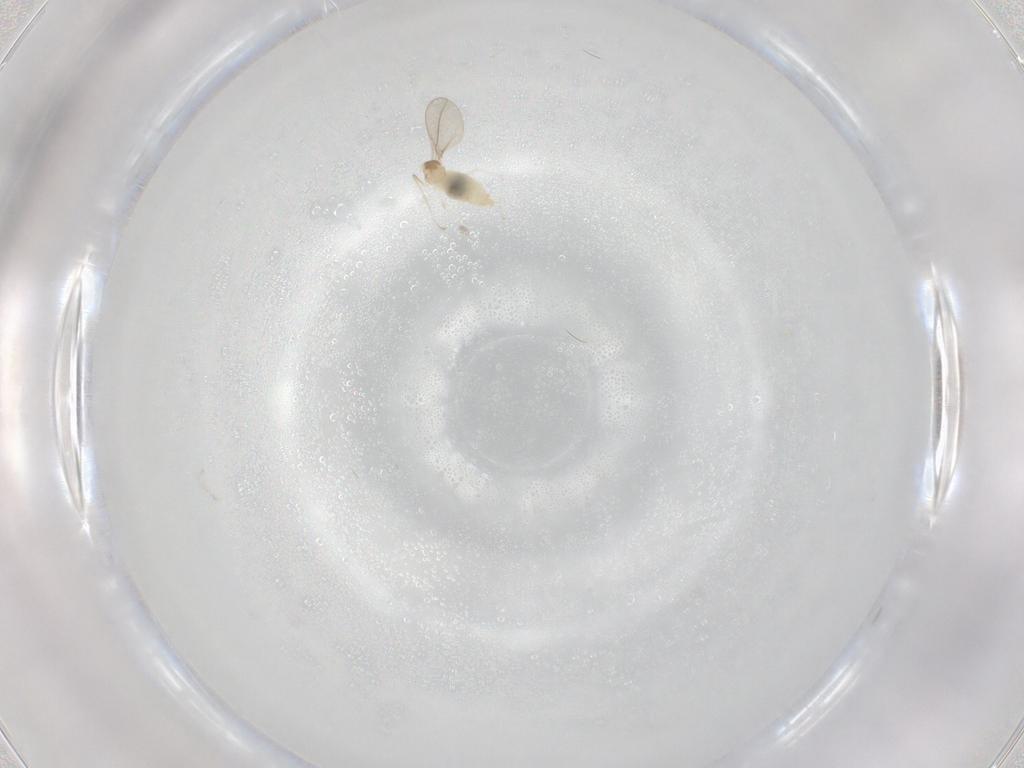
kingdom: Animalia
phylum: Arthropoda
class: Insecta
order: Diptera
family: Cecidomyiidae
